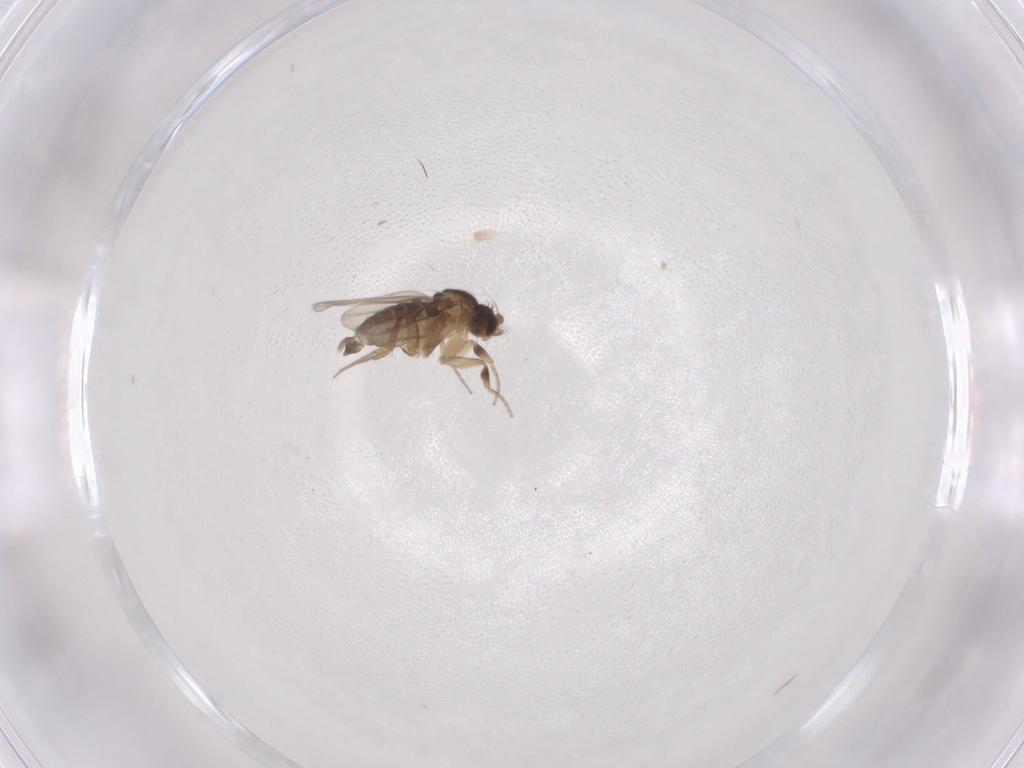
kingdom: Animalia
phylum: Arthropoda
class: Insecta
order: Diptera
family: Phoridae
